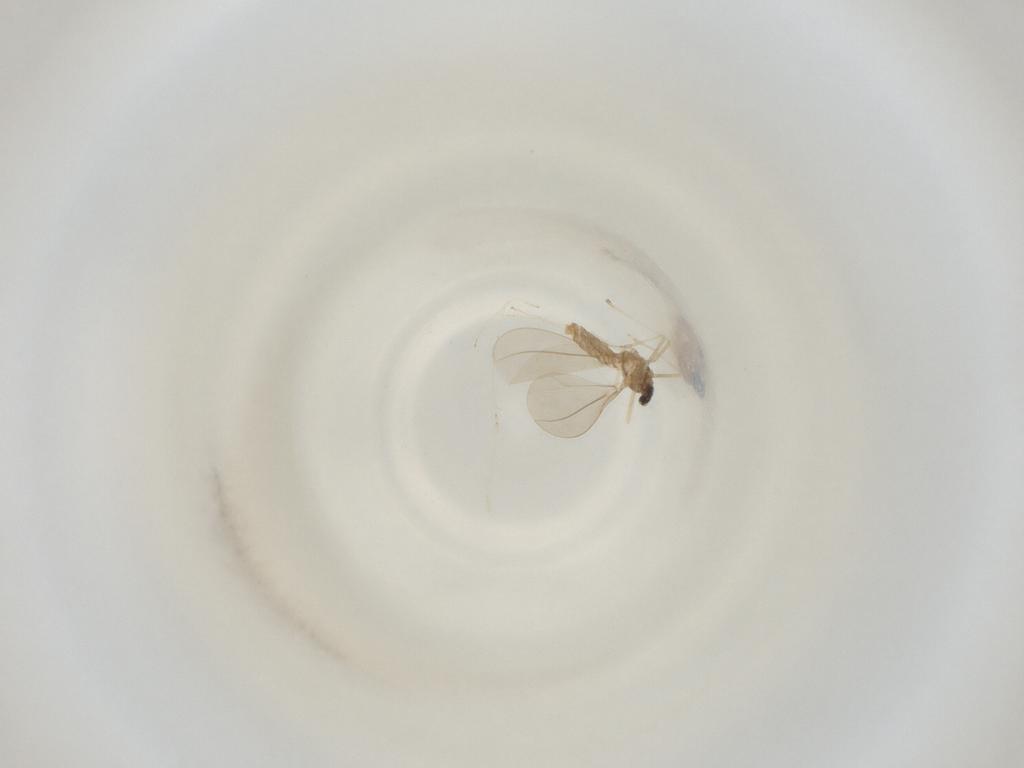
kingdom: Animalia
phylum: Arthropoda
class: Insecta
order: Diptera
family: Cecidomyiidae
